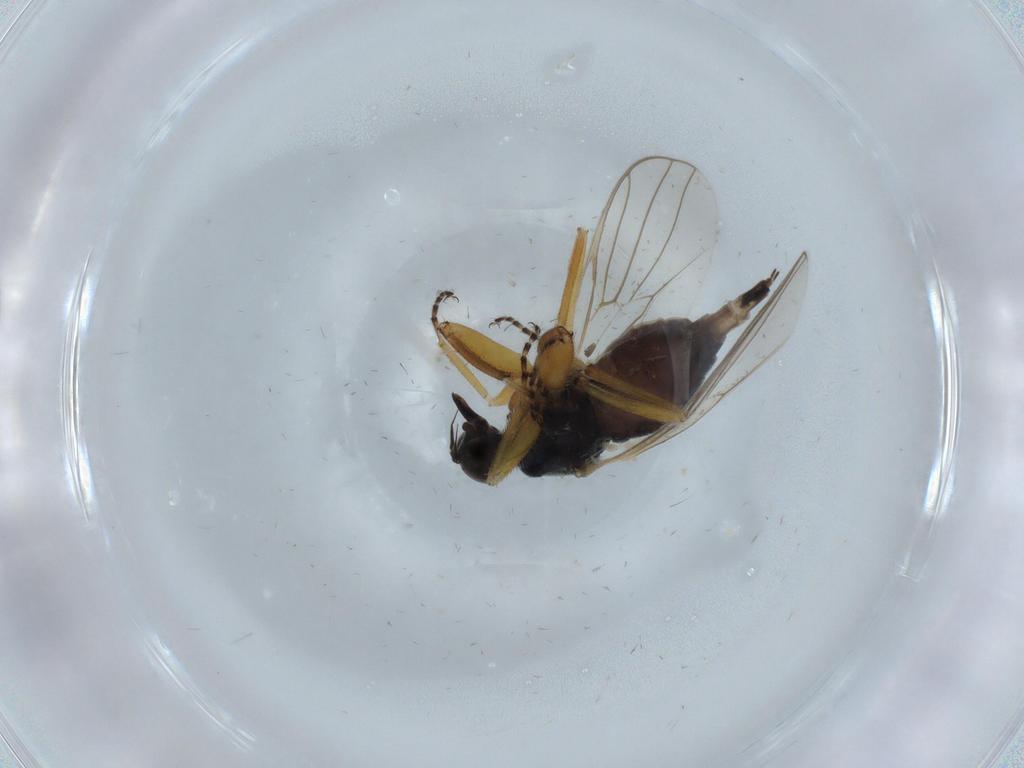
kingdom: Animalia
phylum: Arthropoda
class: Insecta
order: Diptera
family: Hybotidae
